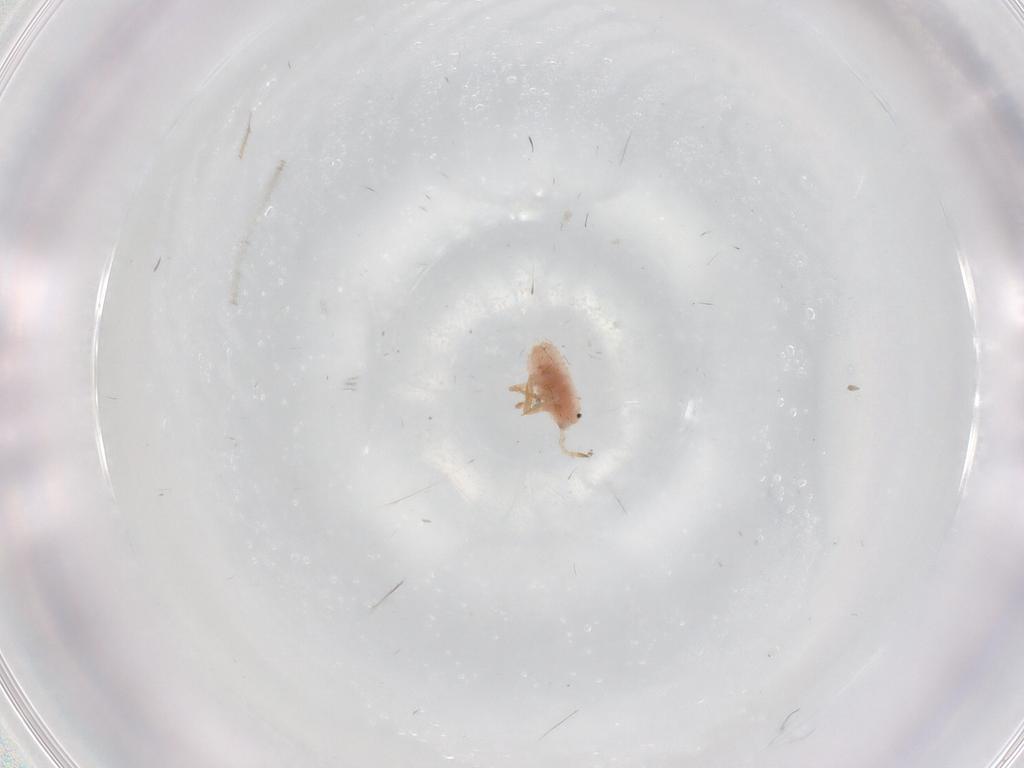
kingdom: Animalia
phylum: Arthropoda
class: Insecta
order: Hemiptera
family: Coccoidea_incertae_sedis
